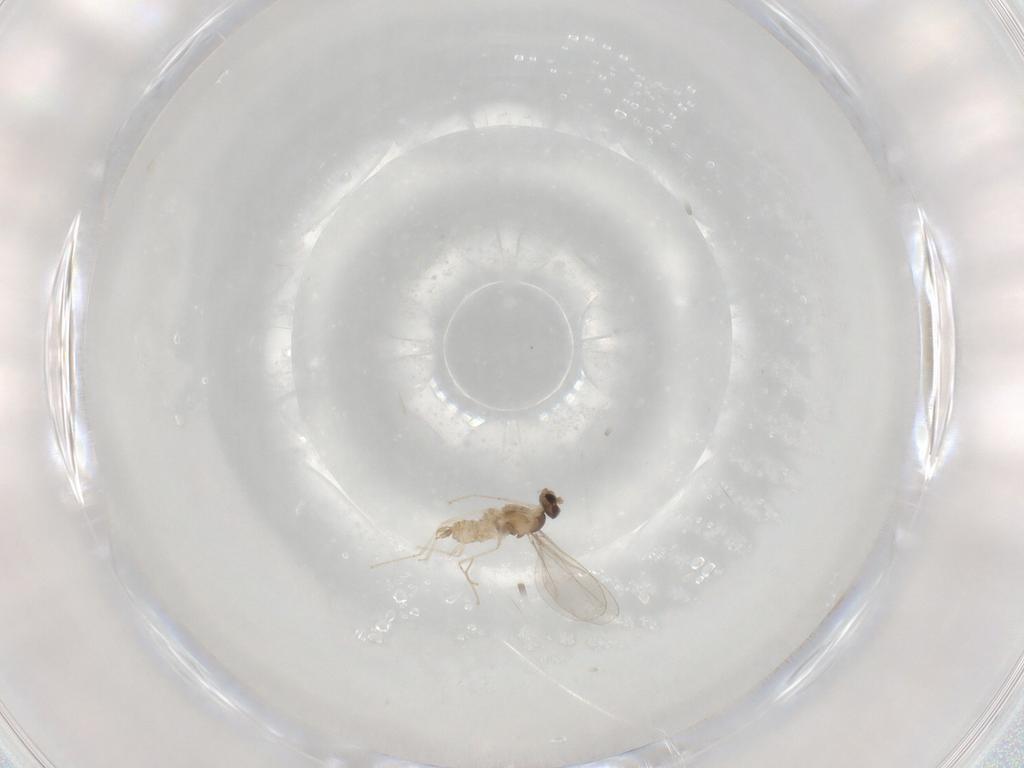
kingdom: Animalia
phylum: Arthropoda
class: Insecta
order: Diptera
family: Cecidomyiidae
